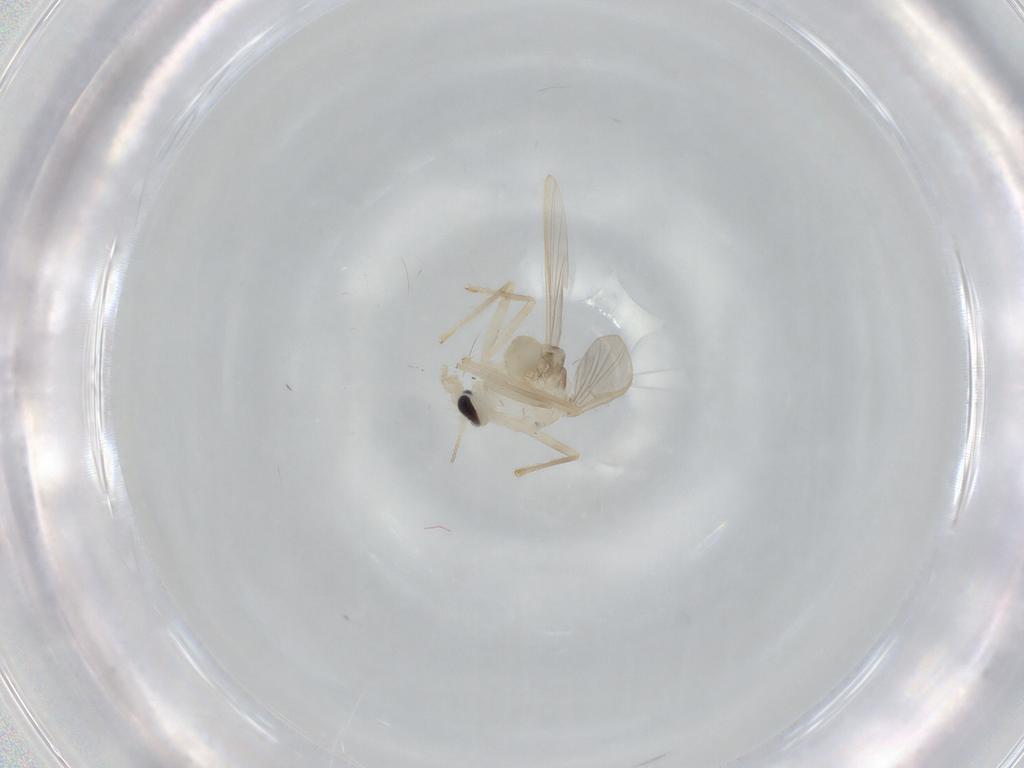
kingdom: Animalia
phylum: Arthropoda
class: Insecta
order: Diptera
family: Chironomidae
